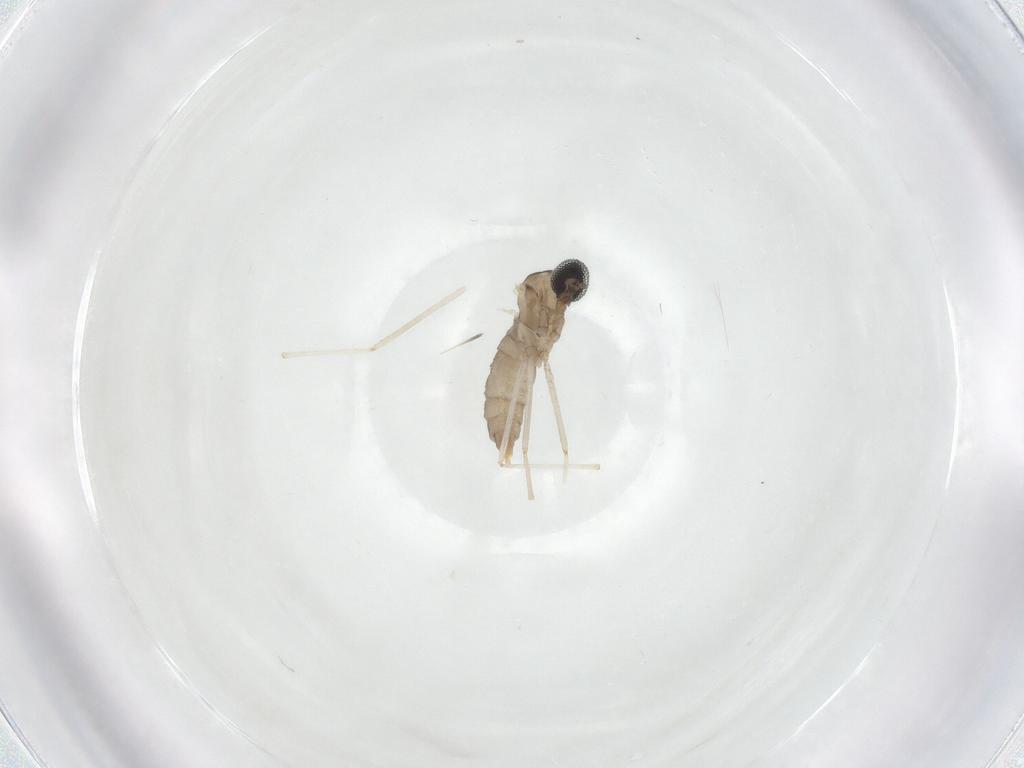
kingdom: Animalia
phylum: Arthropoda
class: Insecta
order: Diptera
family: Cecidomyiidae
